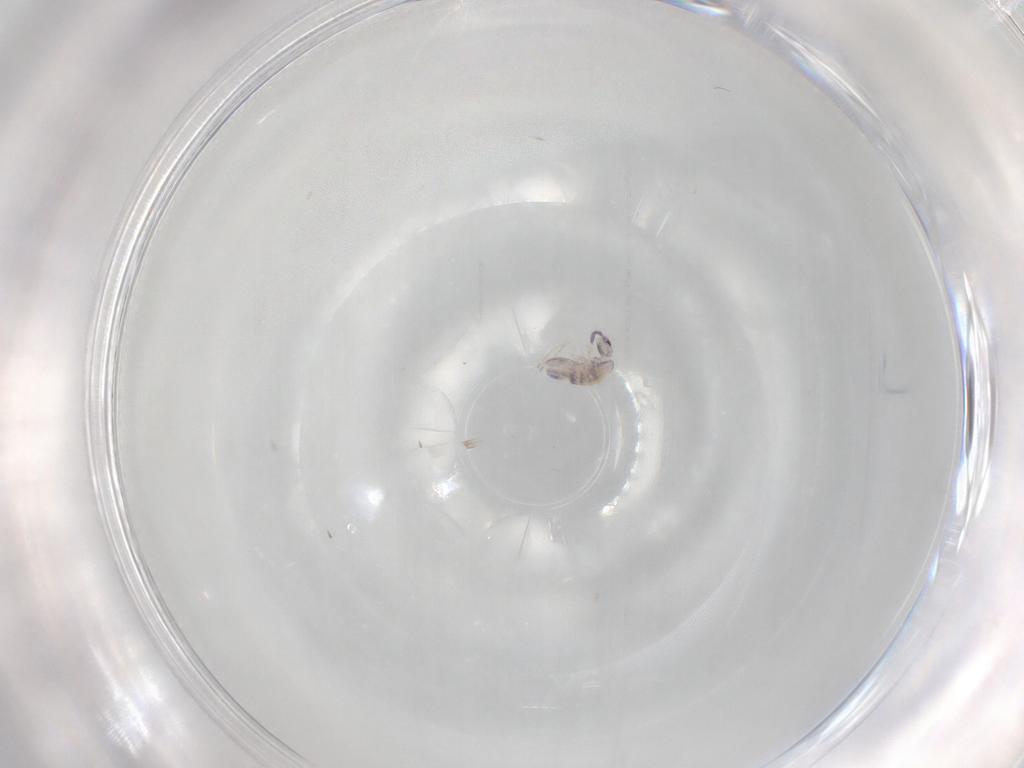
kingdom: Animalia
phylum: Arthropoda
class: Collembola
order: Entomobryomorpha
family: Entomobryidae
